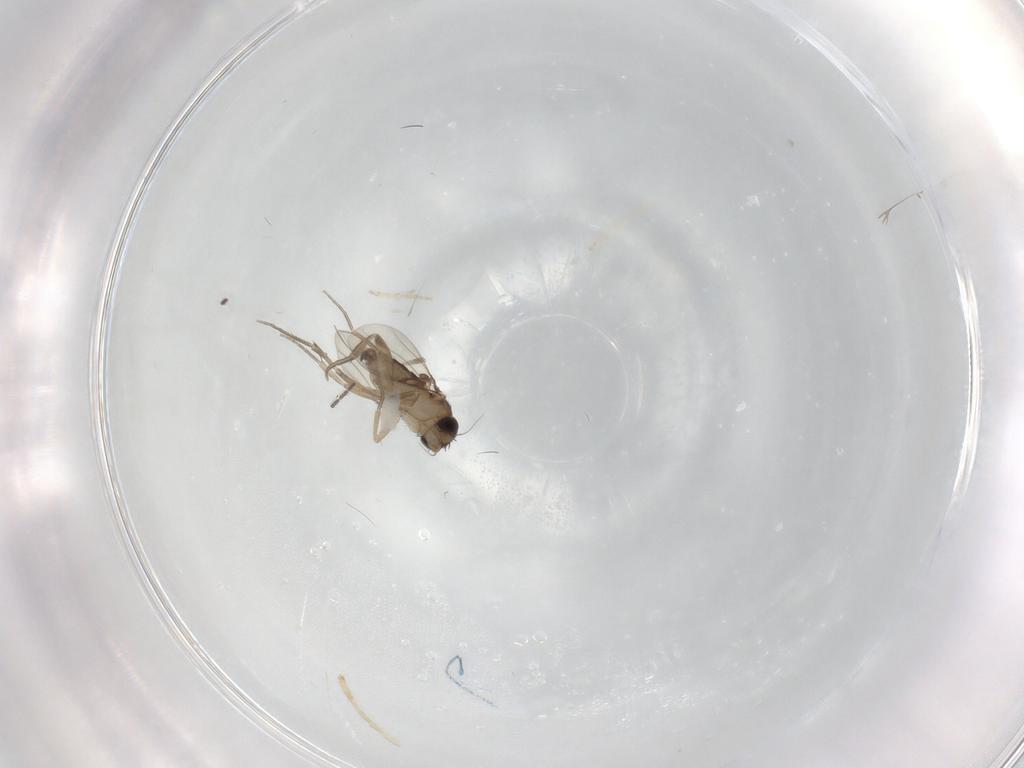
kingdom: Animalia
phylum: Arthropoda
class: Insecta
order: Diptera
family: Phoridae
